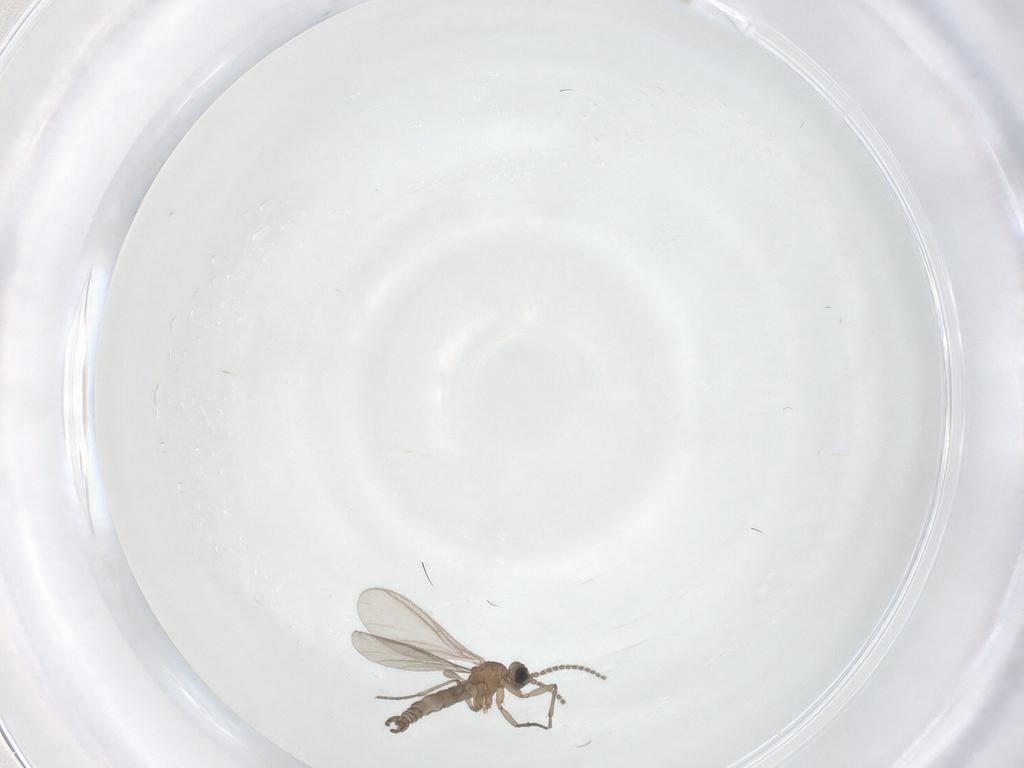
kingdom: Animalia
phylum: Arthropoda
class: Insecta
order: Diptera
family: Sciaridae
